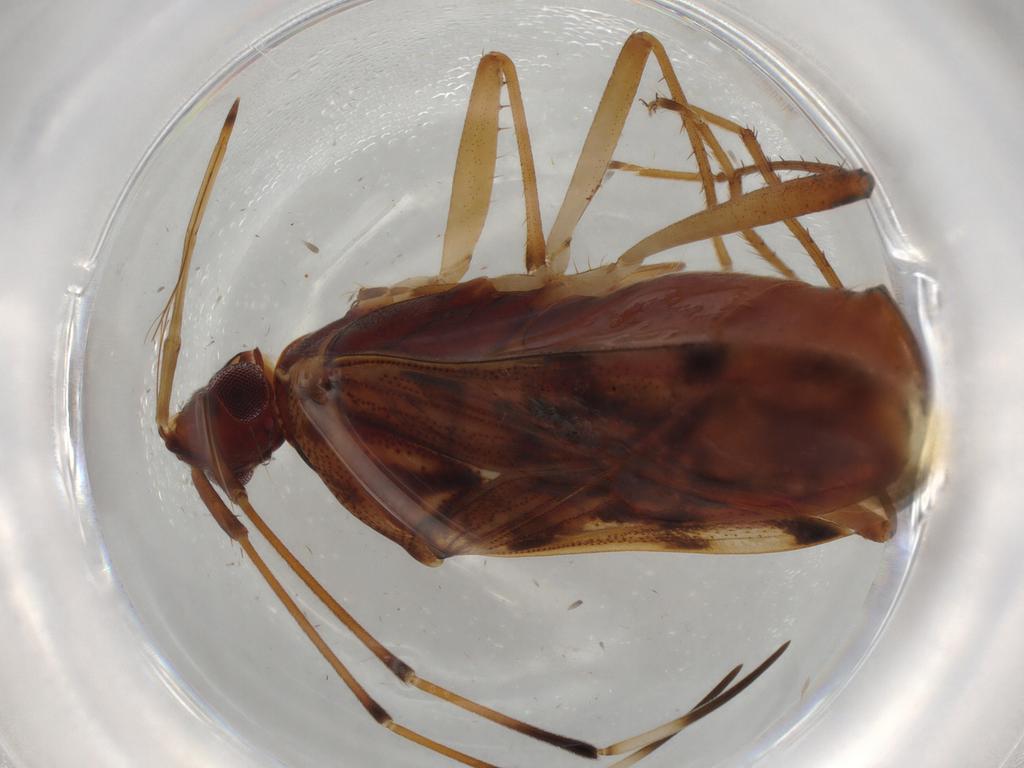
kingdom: Animalia
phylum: Arthropoda
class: Insecta
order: Hemiptera
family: Rhyparochromidae
